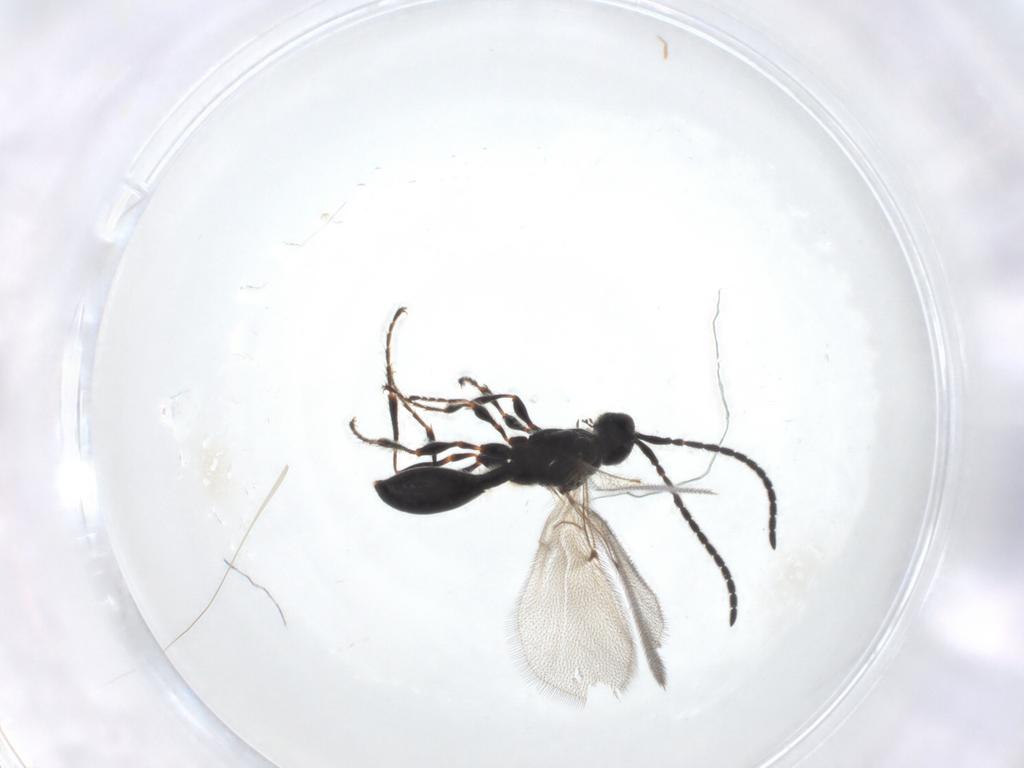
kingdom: Animalia
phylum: Arthropoda
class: Insecta
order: Hymenoptera
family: Diapriidae
